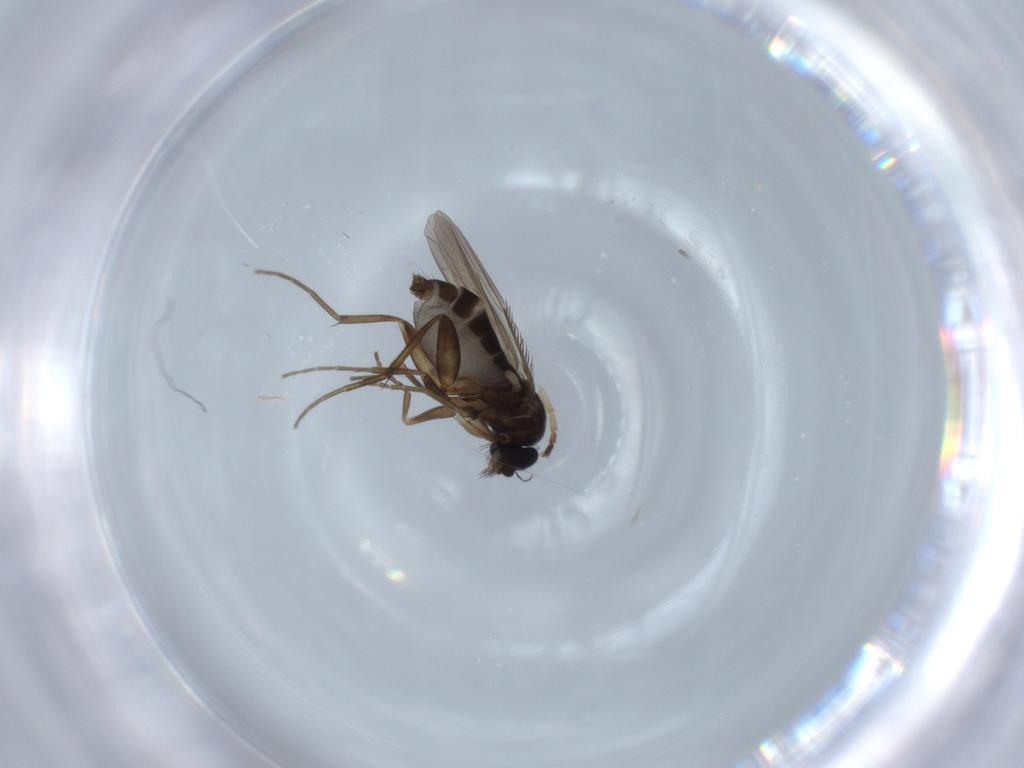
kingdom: Animalia
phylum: Arthropoda
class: Insecta
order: Diptera
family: Phoridae
